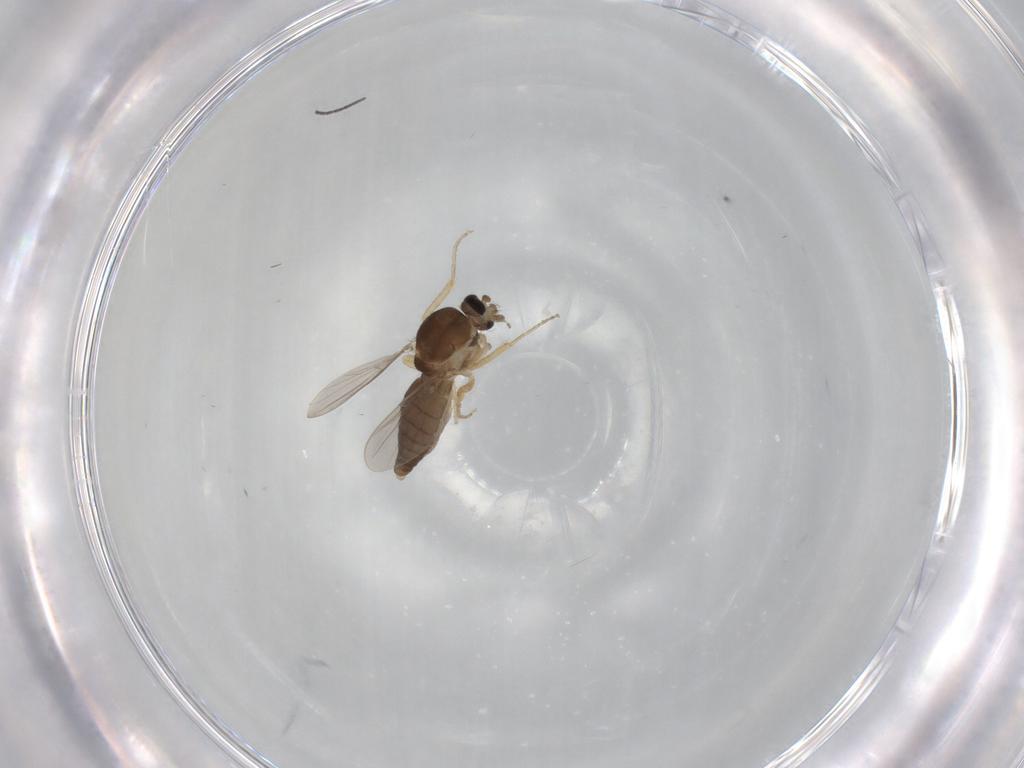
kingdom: Animalia
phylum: Arthropoda
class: Insecta
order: Diptera
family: Ceratopogonidae
